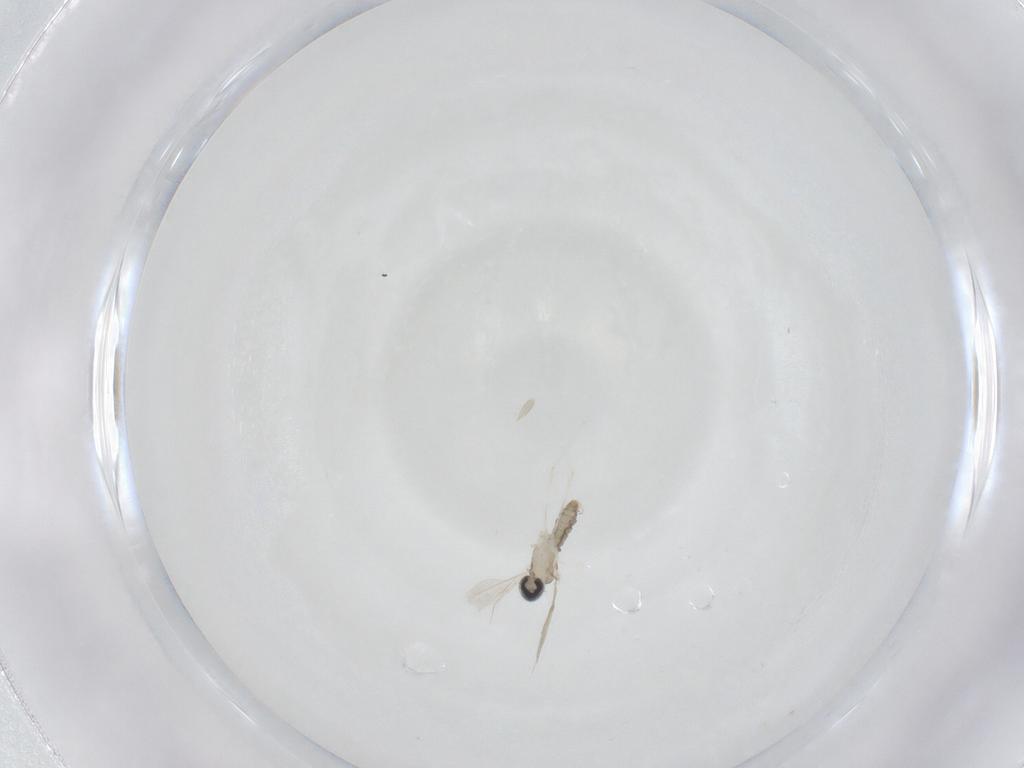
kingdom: Animalia
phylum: Arthropoda
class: Insecta
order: Diptera
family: Cecidomyiidae
